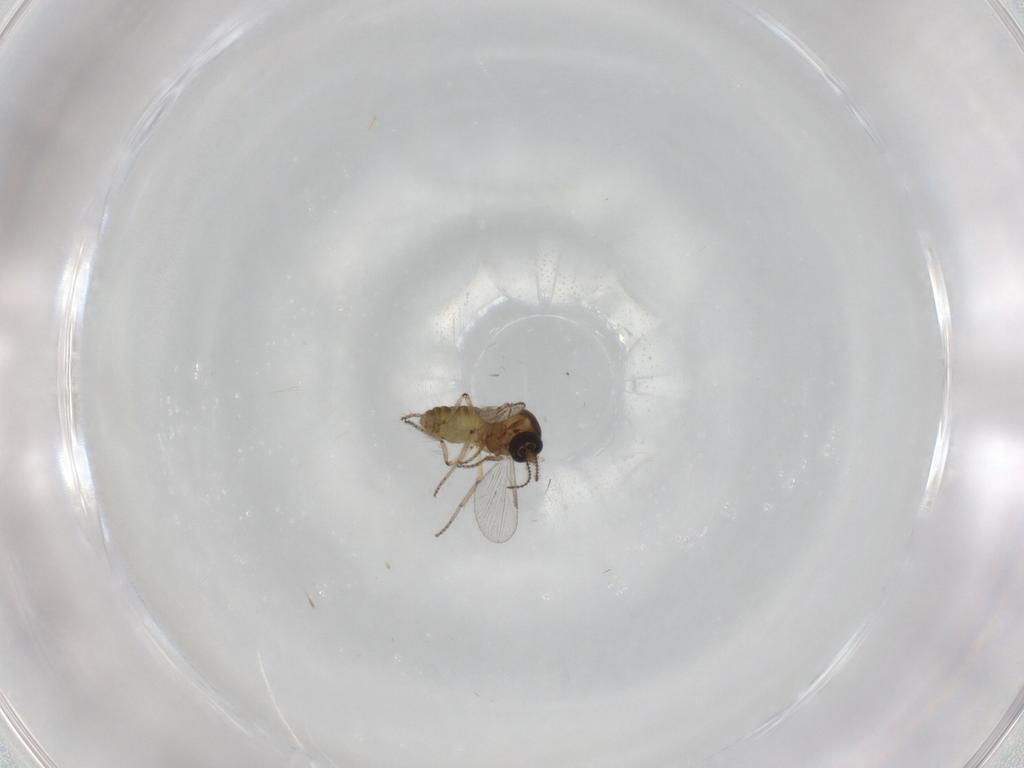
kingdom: Animalia
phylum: Arthropoda
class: Insecta
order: Diptera
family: Ceratopogonidae
